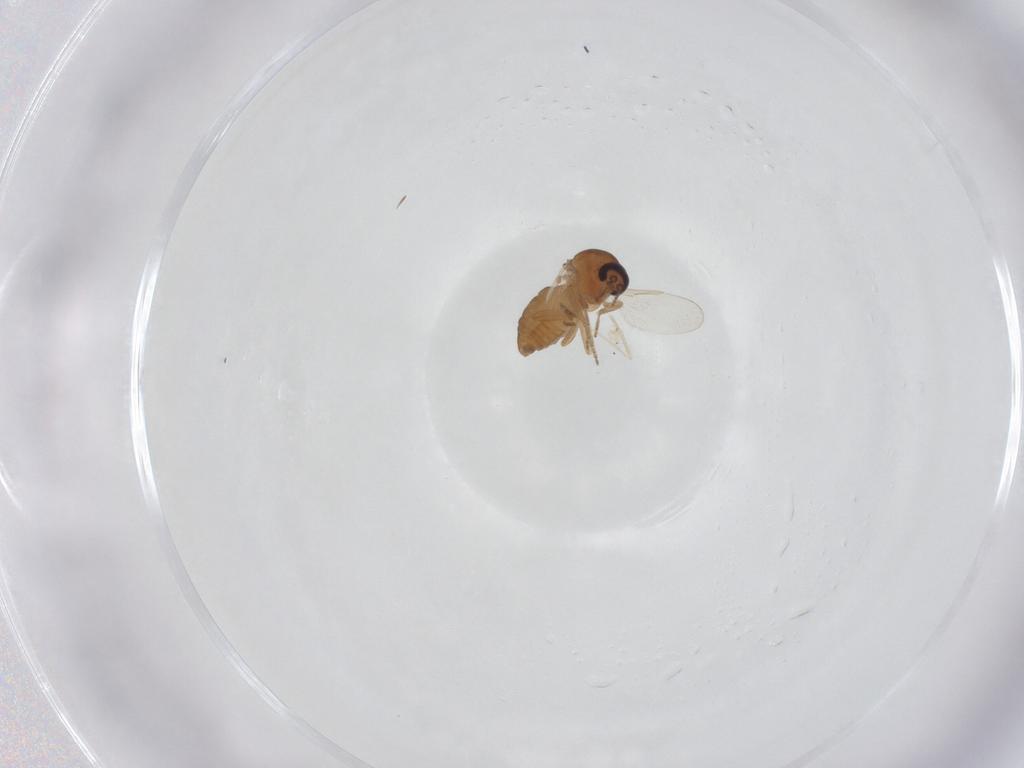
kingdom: Animalia
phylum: Arthropoda
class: Insecta
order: Diptera
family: Ceratopogonidae
